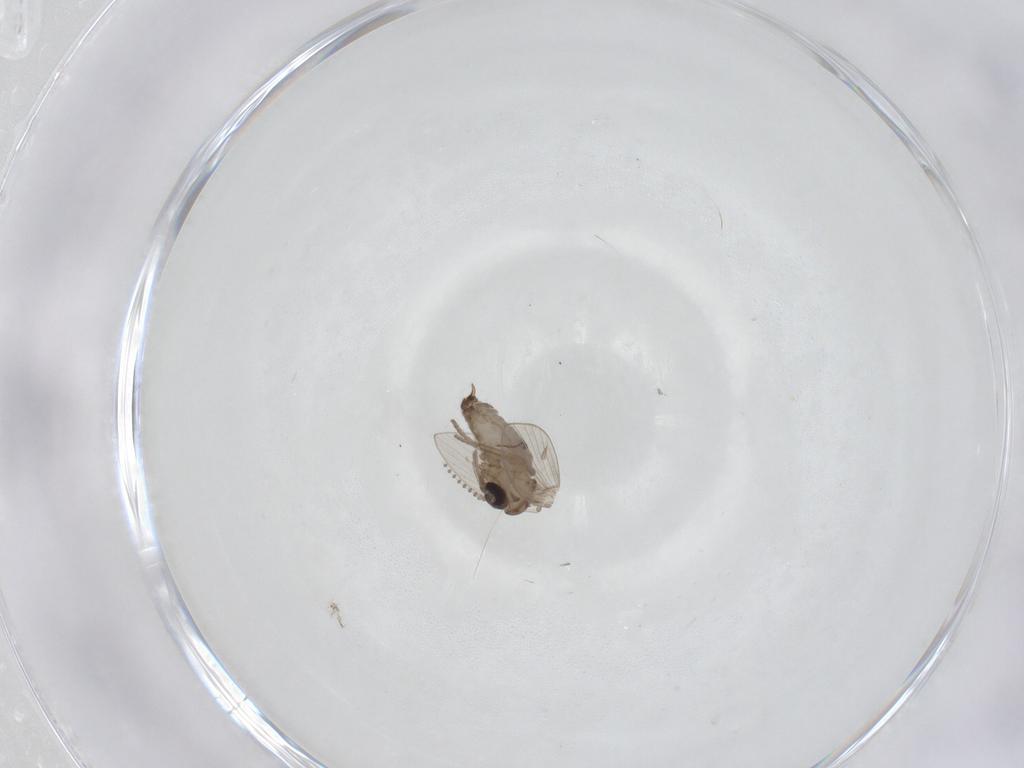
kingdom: Animalia
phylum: Arthropoda
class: Insecta
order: Diptera
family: Psychodidae
